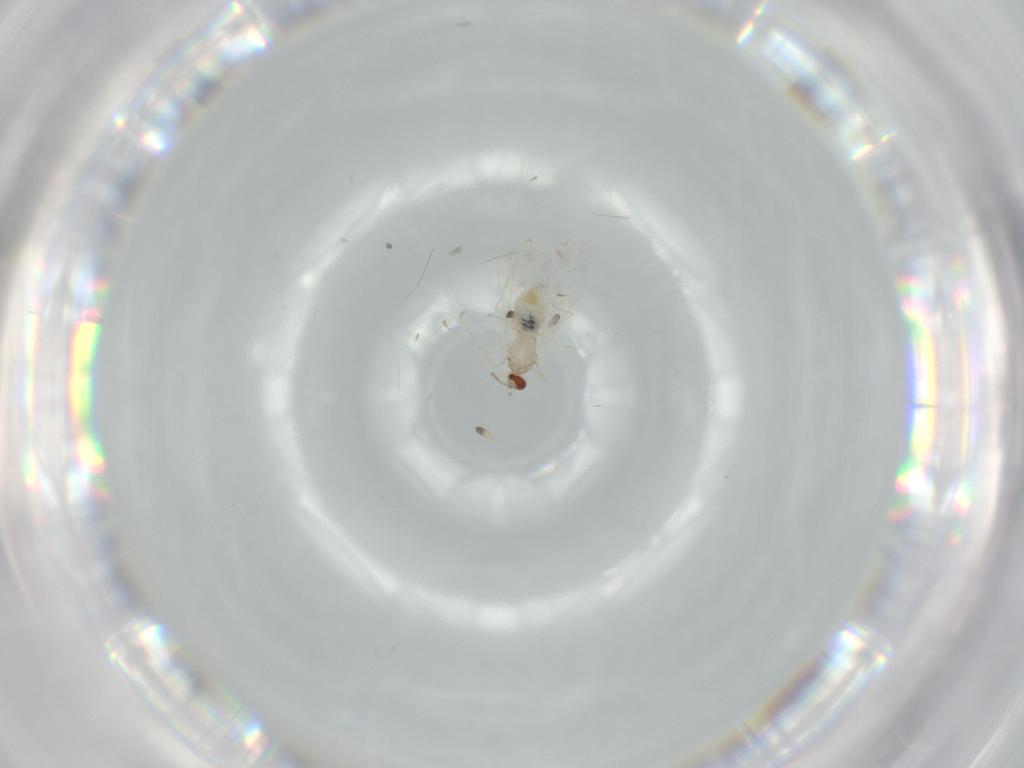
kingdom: Animalia
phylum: Arthropoda
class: Insecta
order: Diptera
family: Cecidomyiidae
